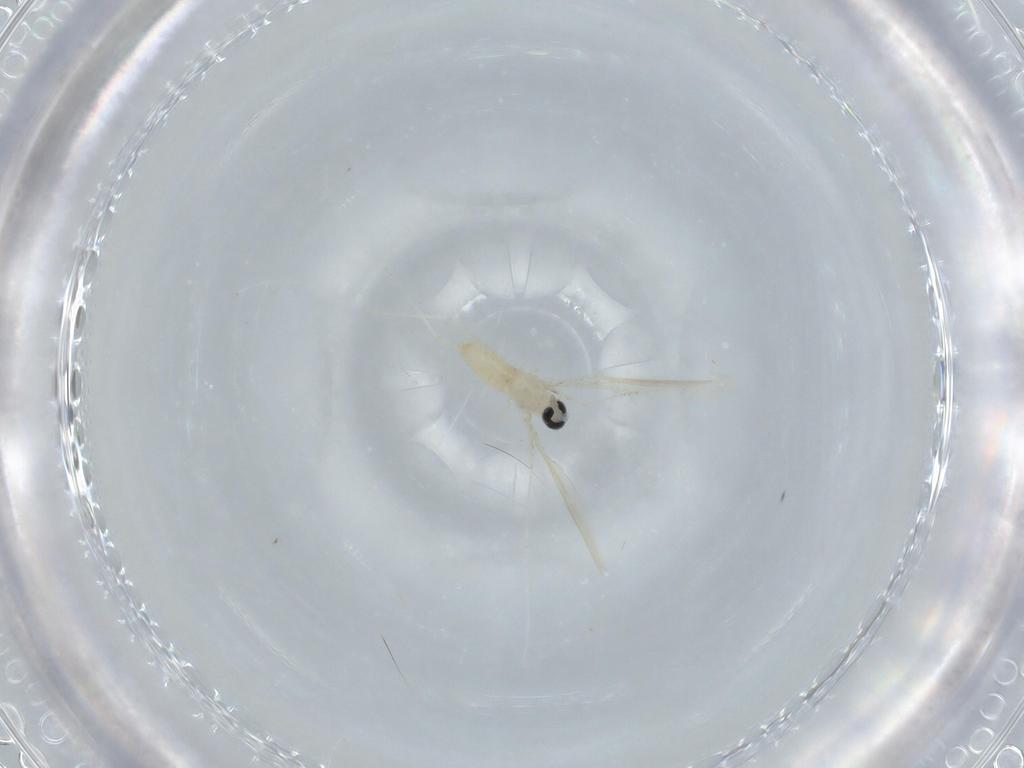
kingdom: Animalia
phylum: Arthropoda
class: Insecta
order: Diptera
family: Cecidomyiidae
